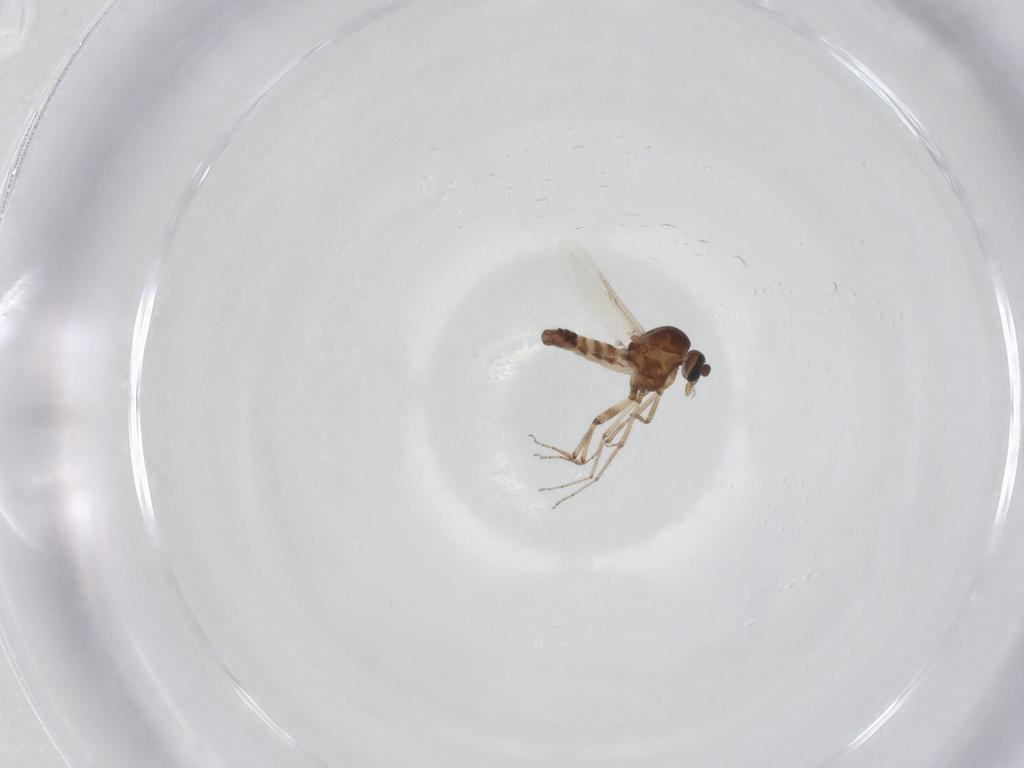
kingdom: Animalia
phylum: Arthropoda
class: Insecta
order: Diptera
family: Ceratopogonidae
